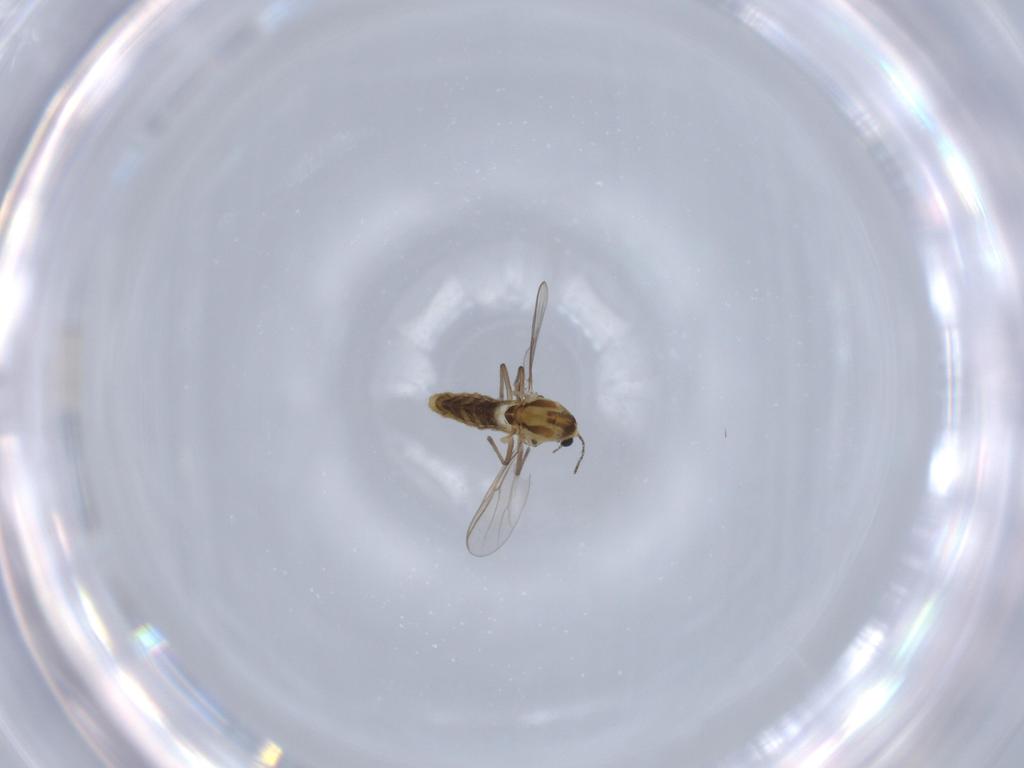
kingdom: Animalia
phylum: Arthropoda
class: Insecta
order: Diptera
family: Chironomidae
